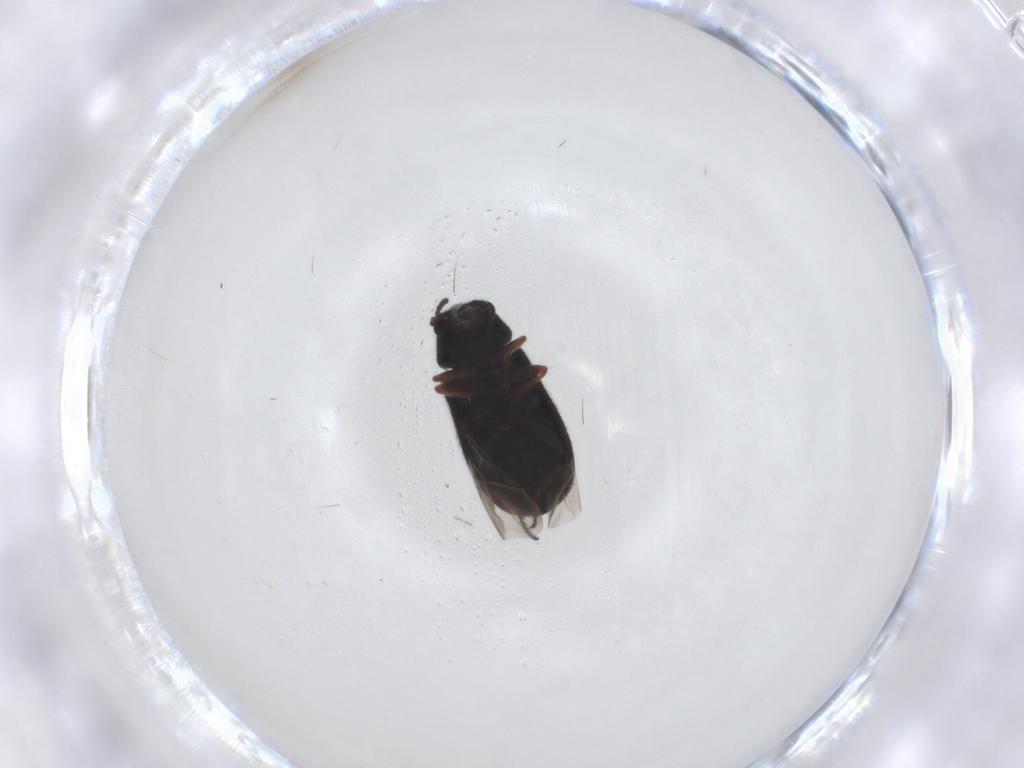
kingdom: Animalia
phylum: Arthropoda
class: Insecta
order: Coleoptera
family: Melyridae
